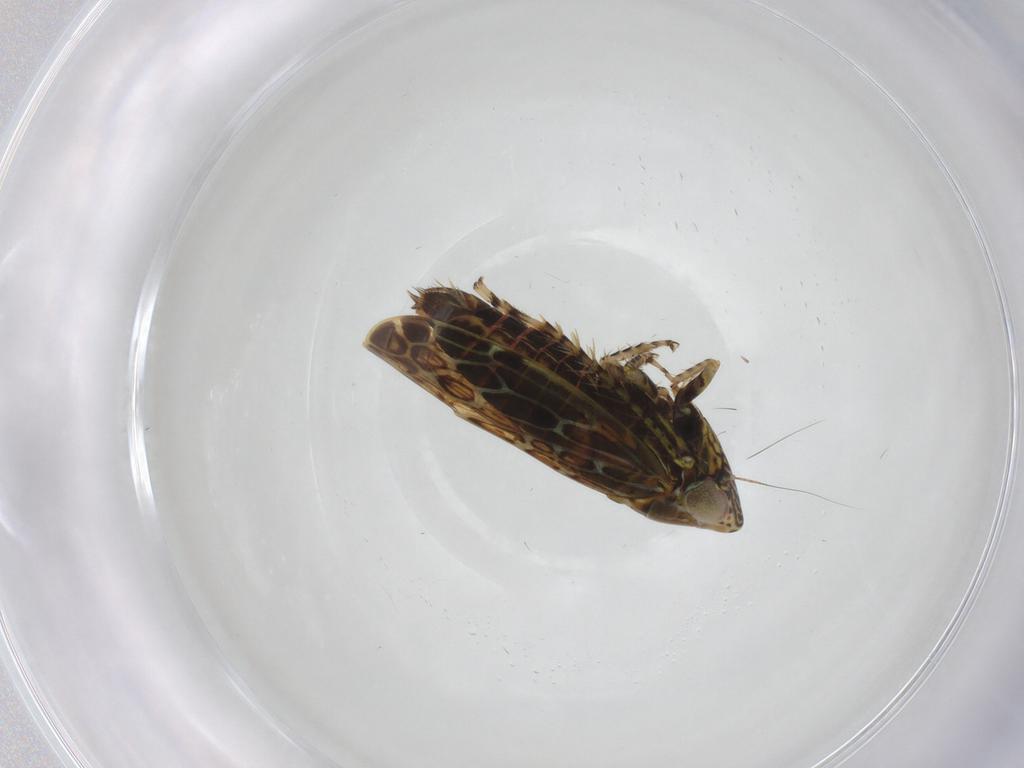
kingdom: Animalia
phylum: Arthropoda
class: Insecta
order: Hemiptera
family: Cicadellidae
